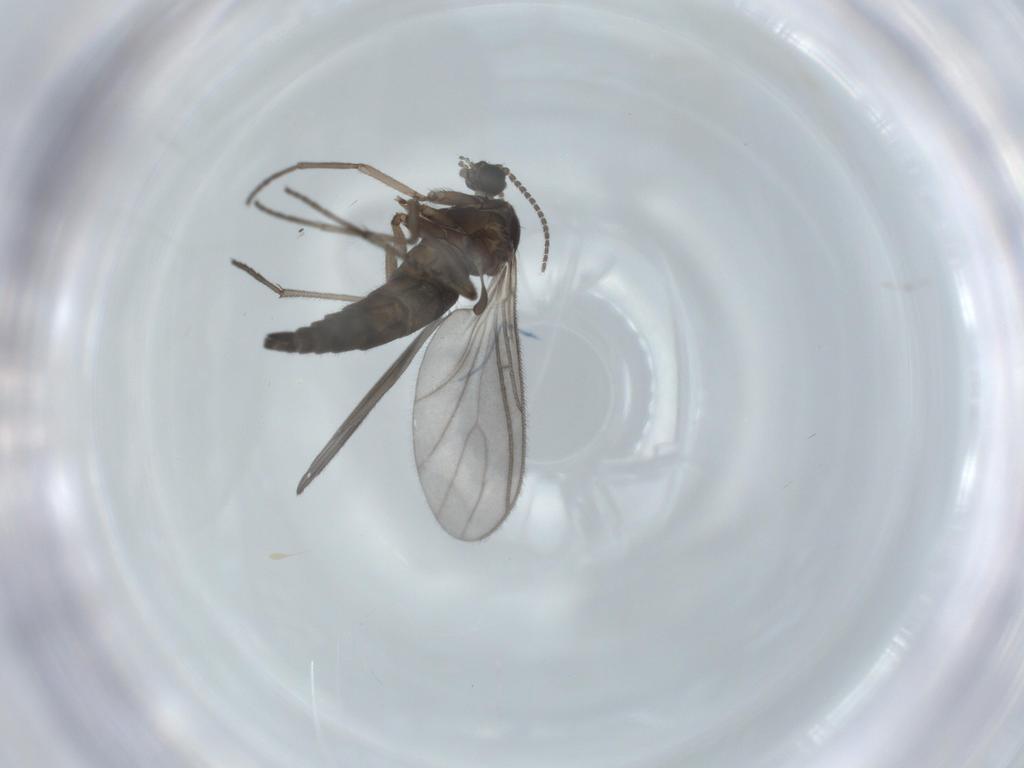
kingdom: Animalia
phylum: Arthropoda
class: Insecta
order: Diptera
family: Sciaridae
